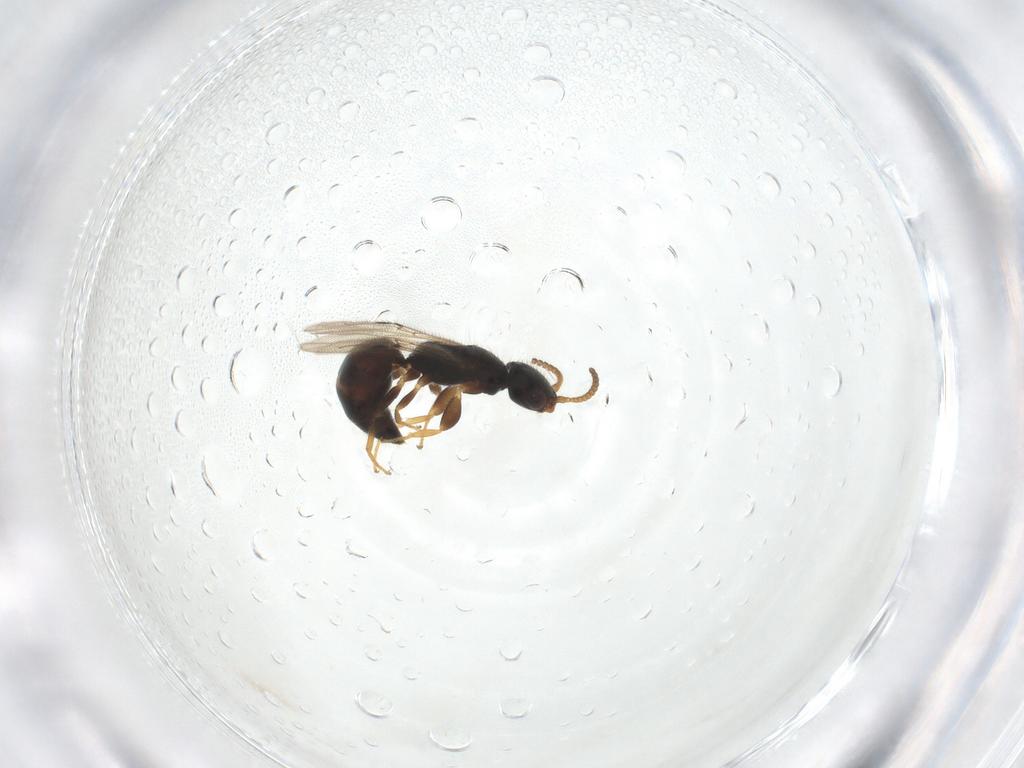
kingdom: Animalia
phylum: Arthropoda
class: Insecta
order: Hymenoptera
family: Bethylidae
